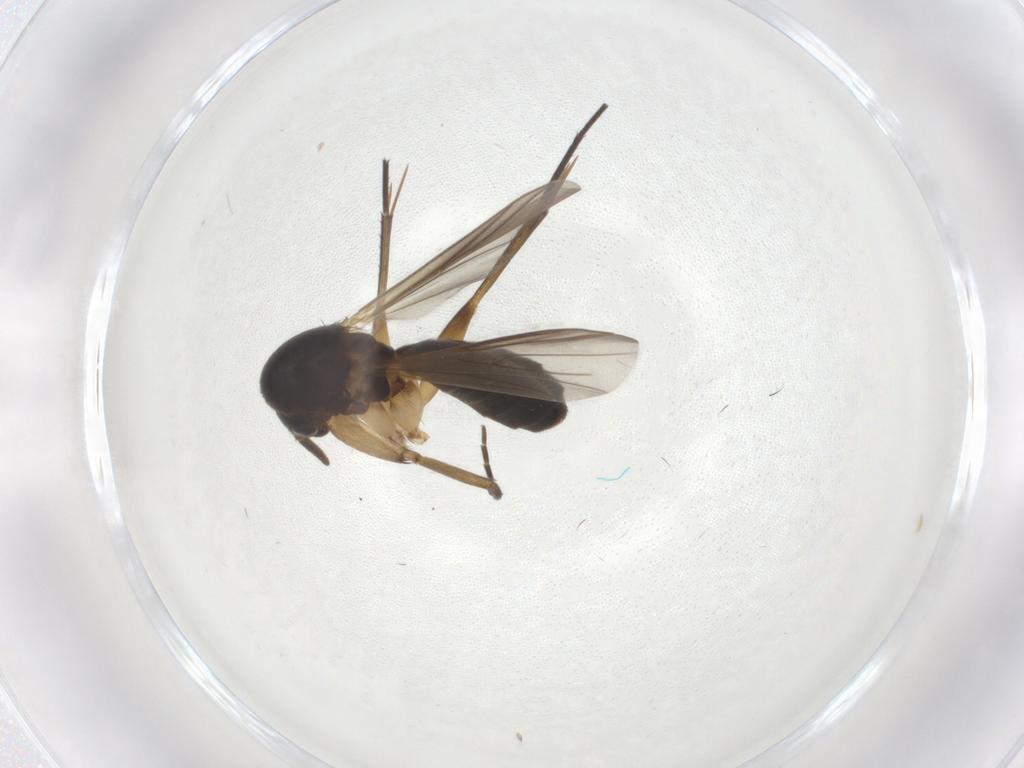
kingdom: Animalia
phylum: Arthropoda
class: Insecta
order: Diptera
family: Mycetophilidae
